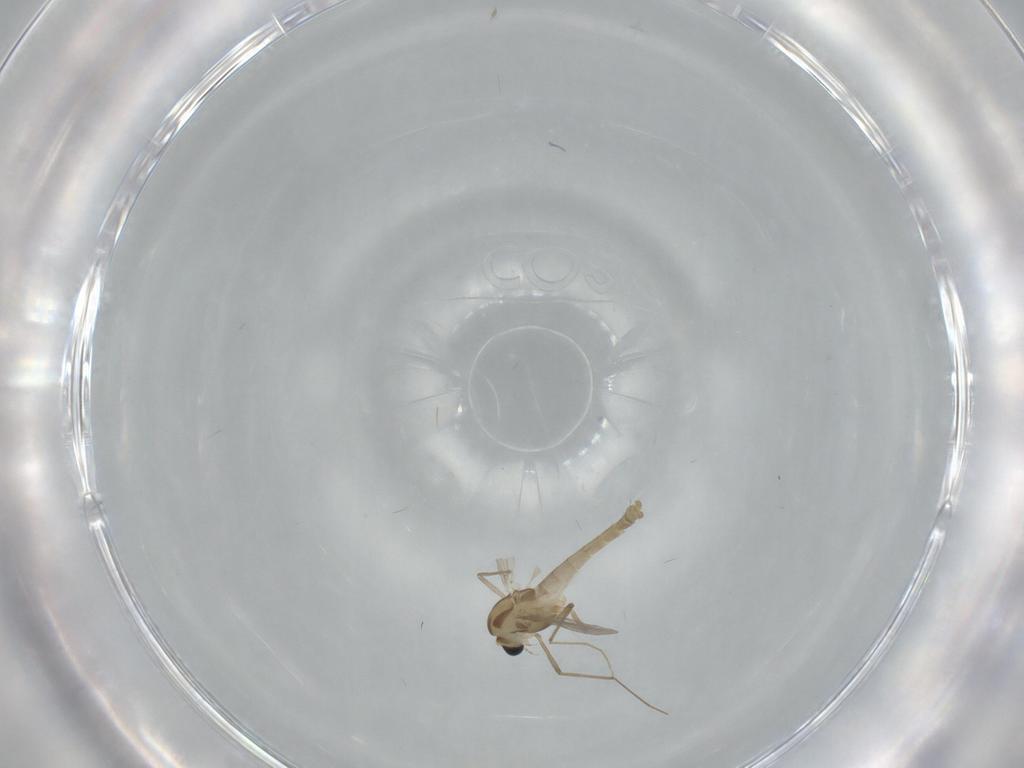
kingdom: Animalia
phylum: Arthropoda
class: Insecta
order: Diptera
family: Chironomidae
